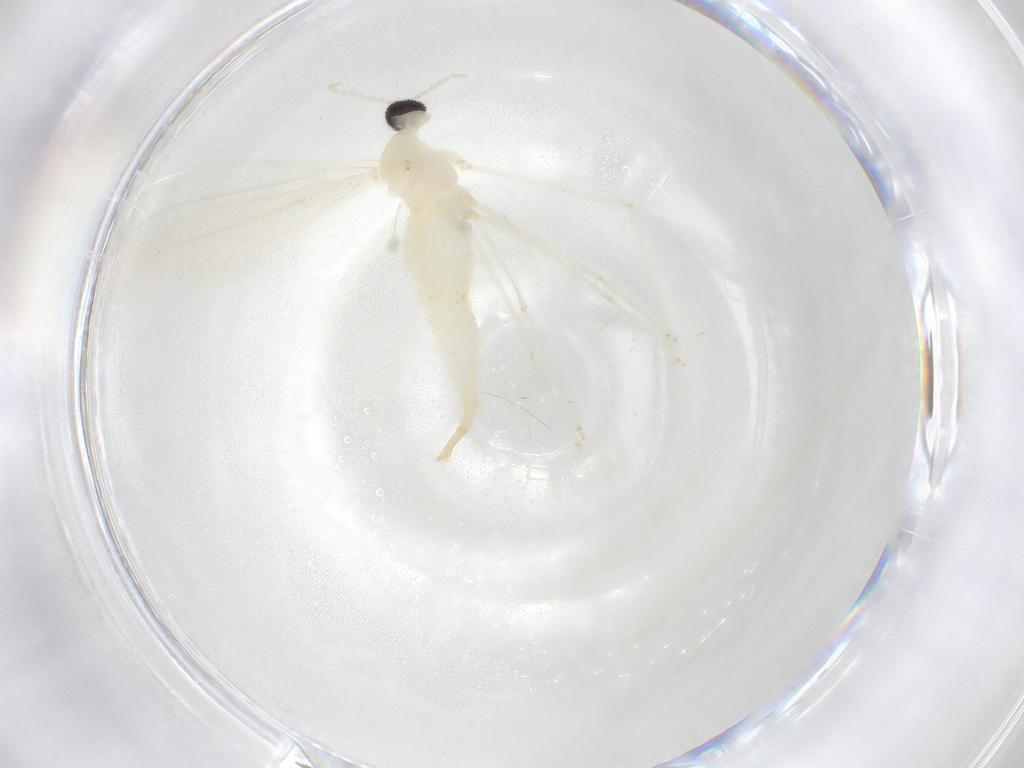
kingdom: Animalia
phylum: Arthropoda
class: Insecta
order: Diptera
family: Cecidomyiidae
